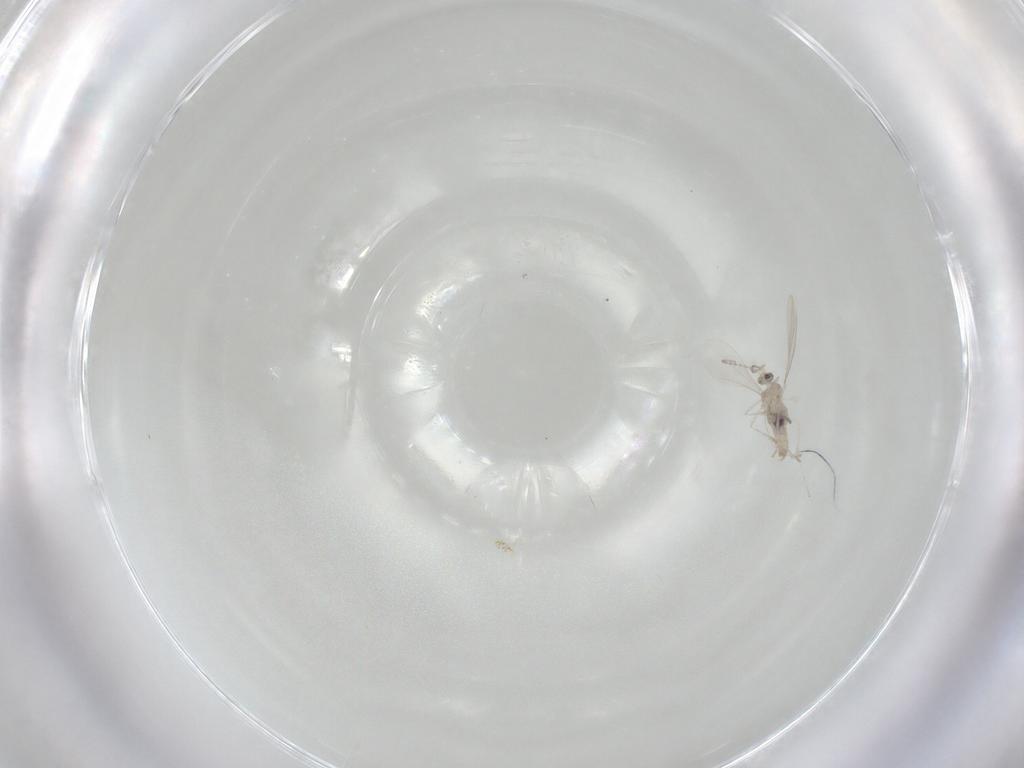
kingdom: Animalia
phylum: Arthropoda
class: Insecta
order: Diptera
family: Cecidomyiidae
